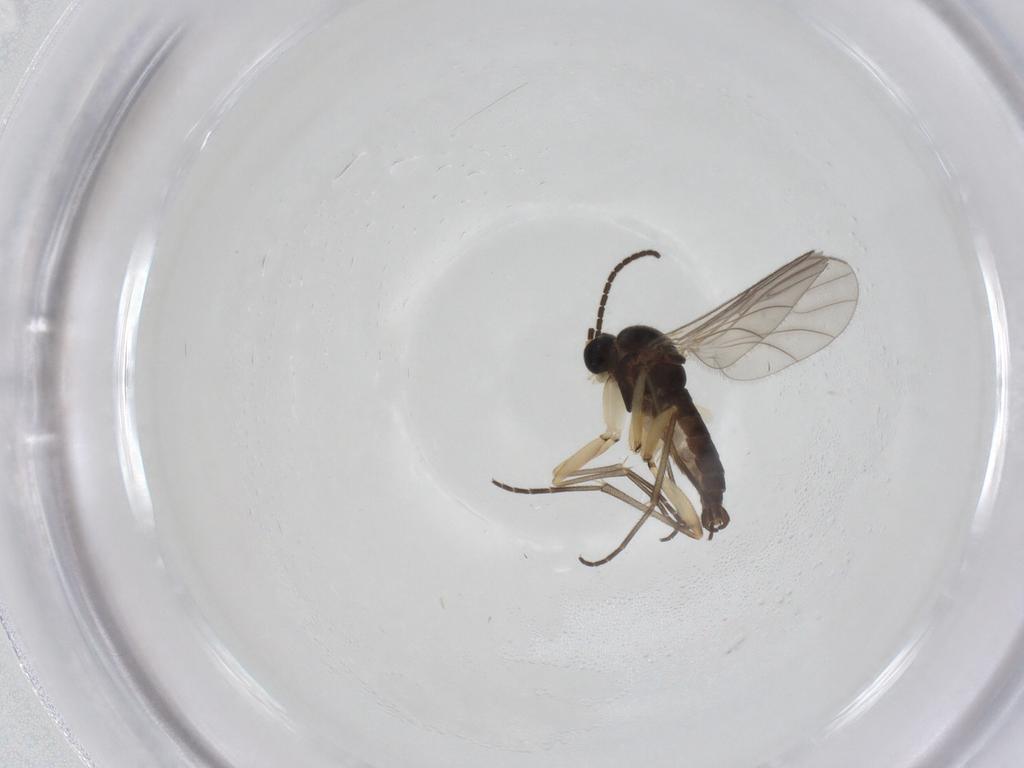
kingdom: Animalia
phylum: Arthropoda
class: Insecta
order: Diptera
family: Sciaridae
